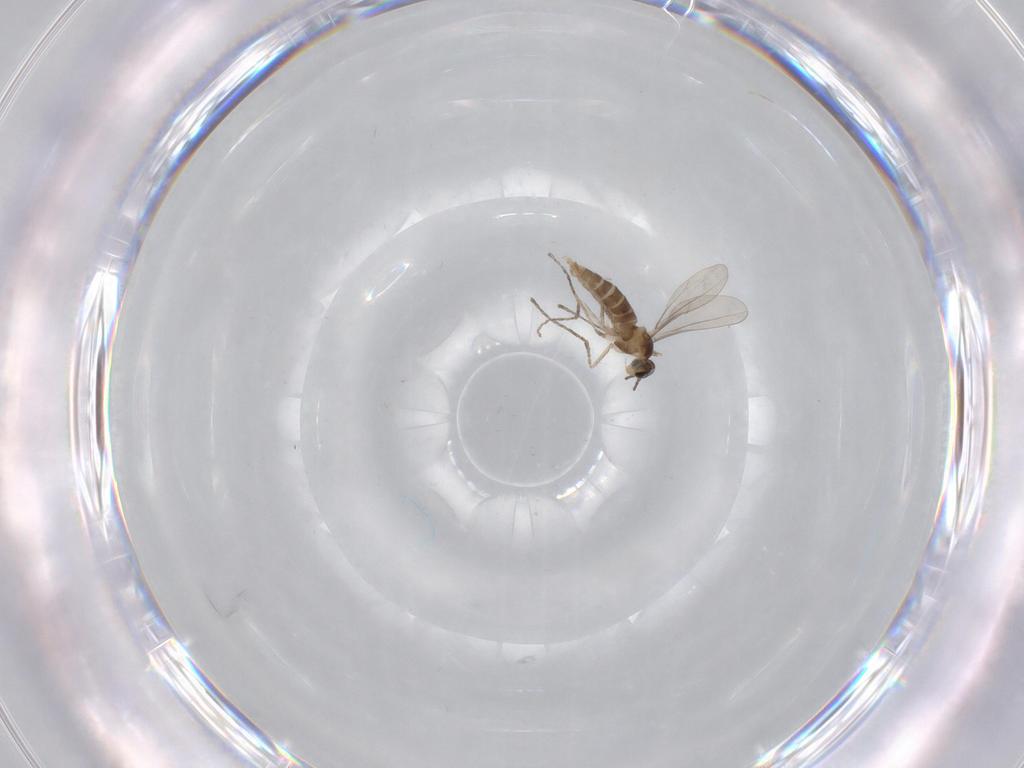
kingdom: Animalia
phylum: Arthropoda
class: Insecta
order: Diptera
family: Cecidomyiidae
